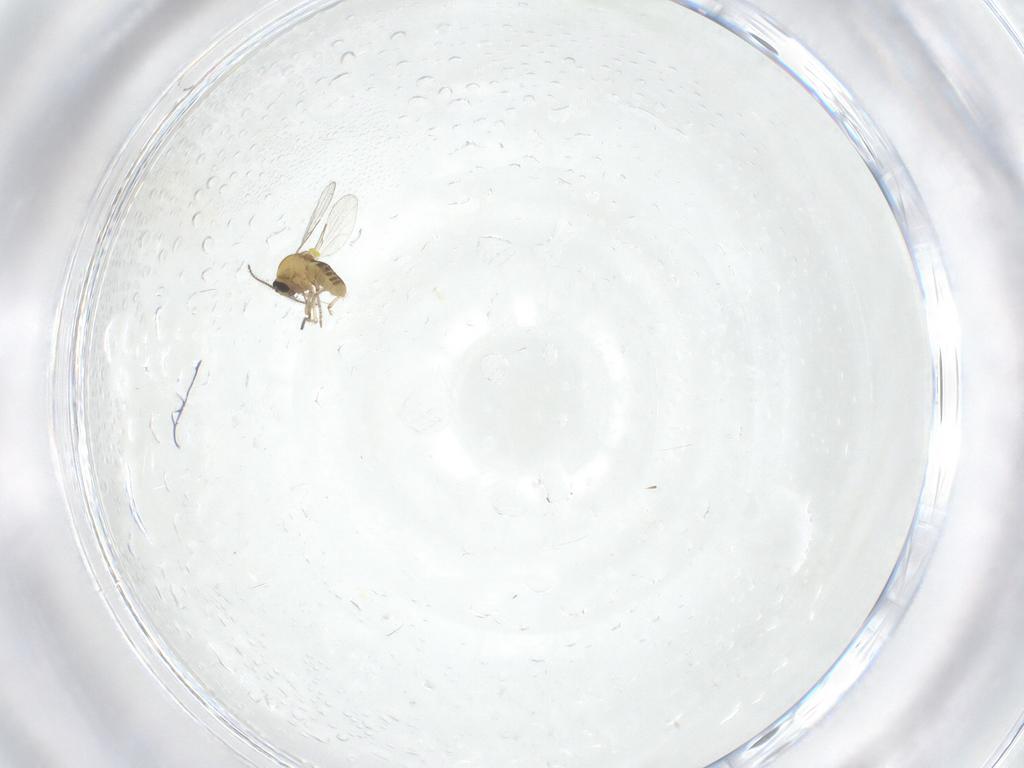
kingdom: Animalia
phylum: Arthropoda
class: Insecta
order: Diptera
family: Ceratopogonidae
